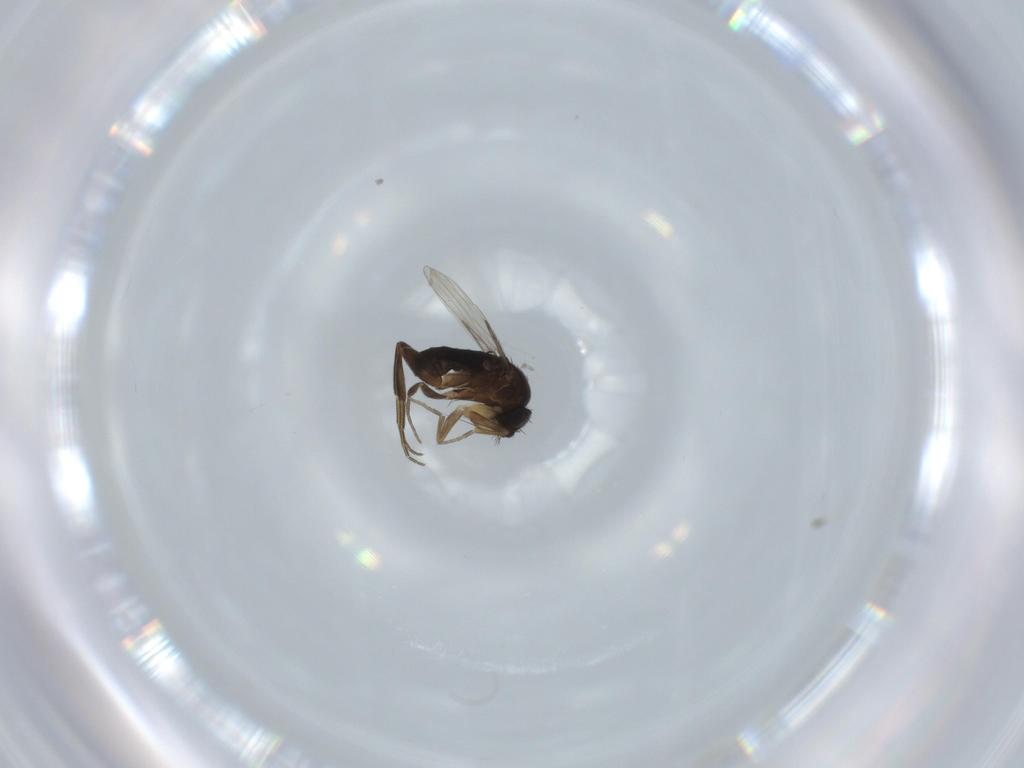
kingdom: Animalia
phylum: Arthropoda
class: Insecta
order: Diptera
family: Phoridae
